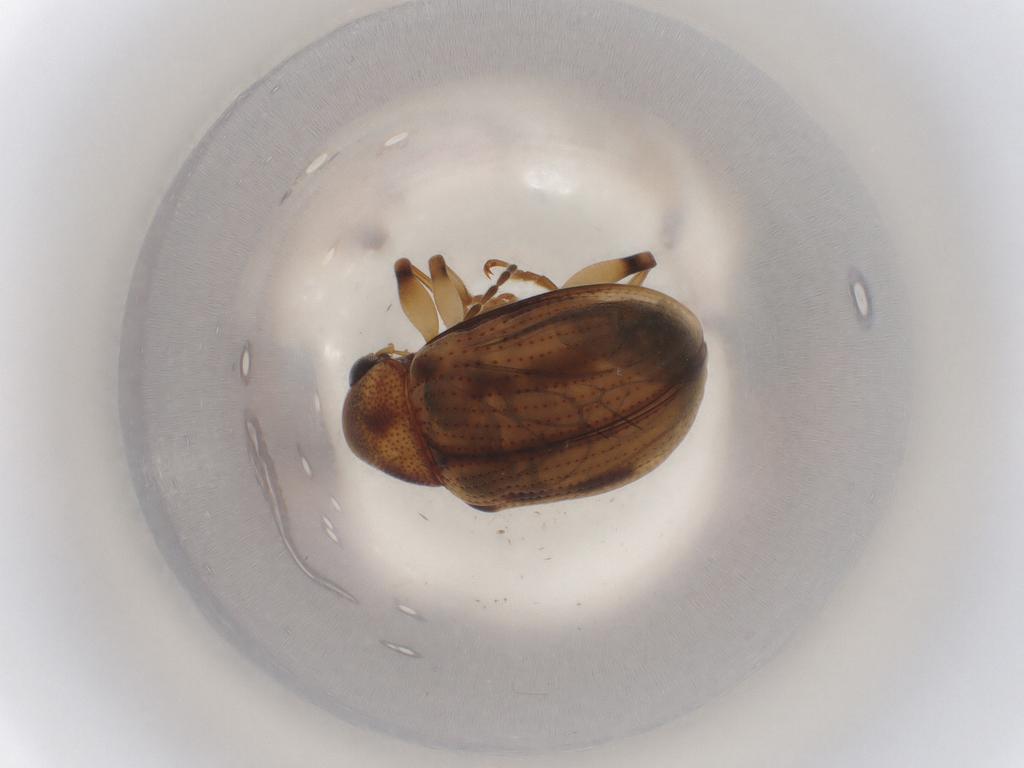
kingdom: Animalia
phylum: Arthropoda
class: Insecta
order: Coleoptera
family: Chrysomelidae
